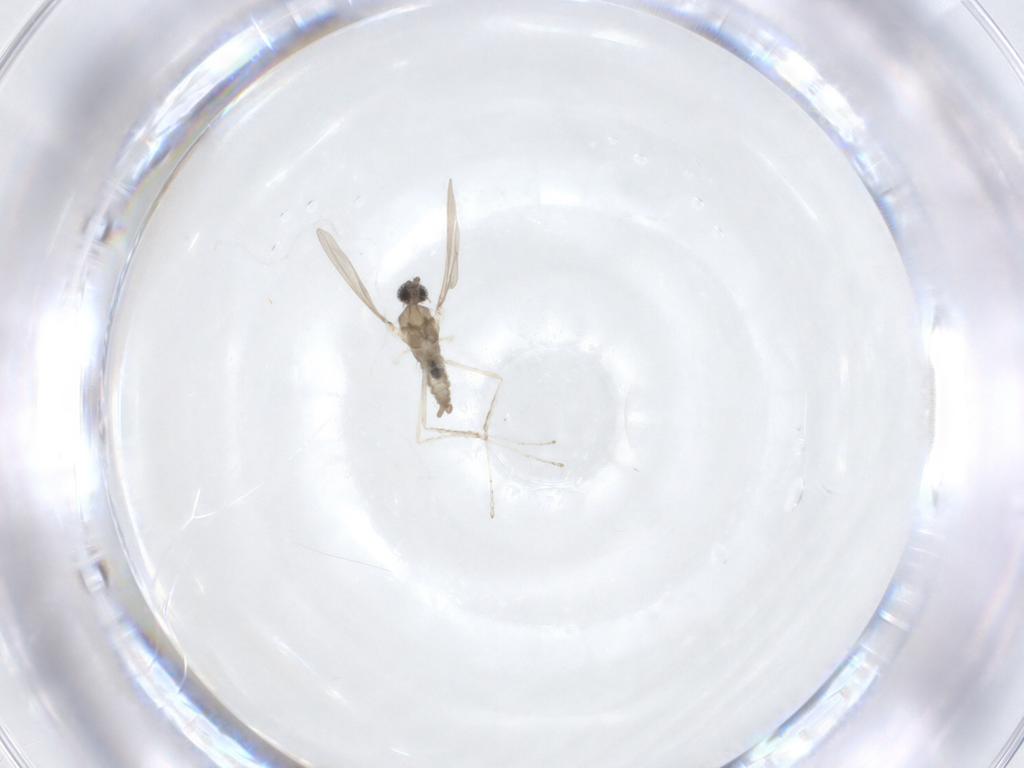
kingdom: Animalia
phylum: Arthropoda
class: Insecta
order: Diptera
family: Cecidomyiidae
